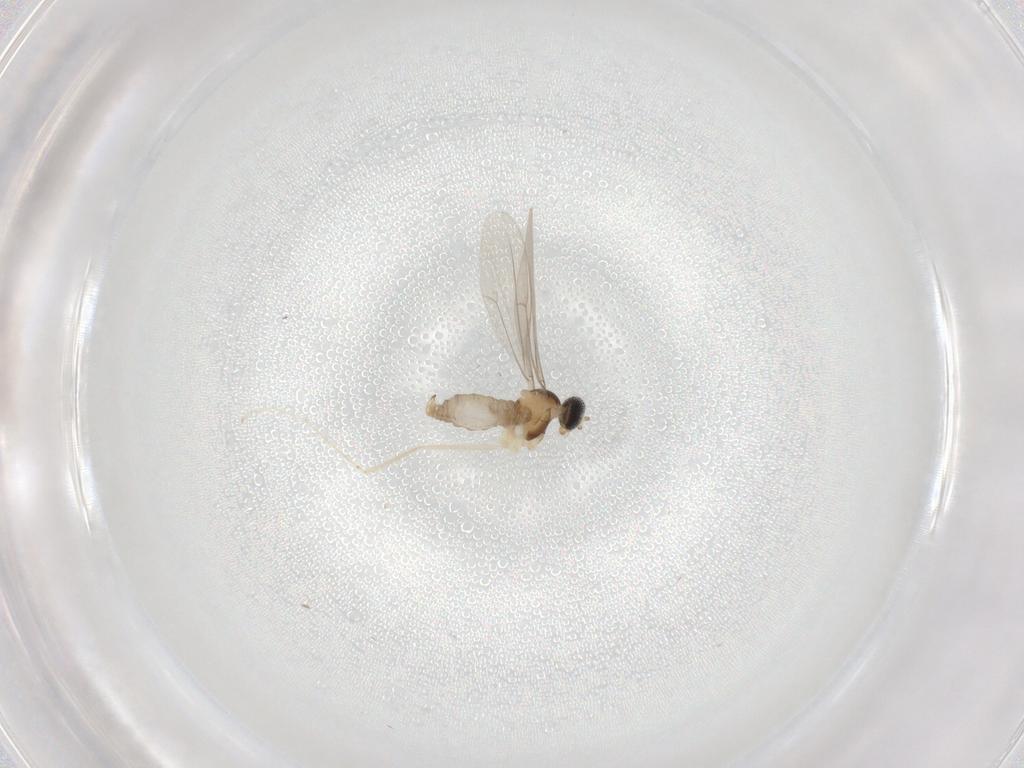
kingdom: Animalia
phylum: Arthropoda
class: Insecta
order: Diptera
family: Cecidomyiidae
